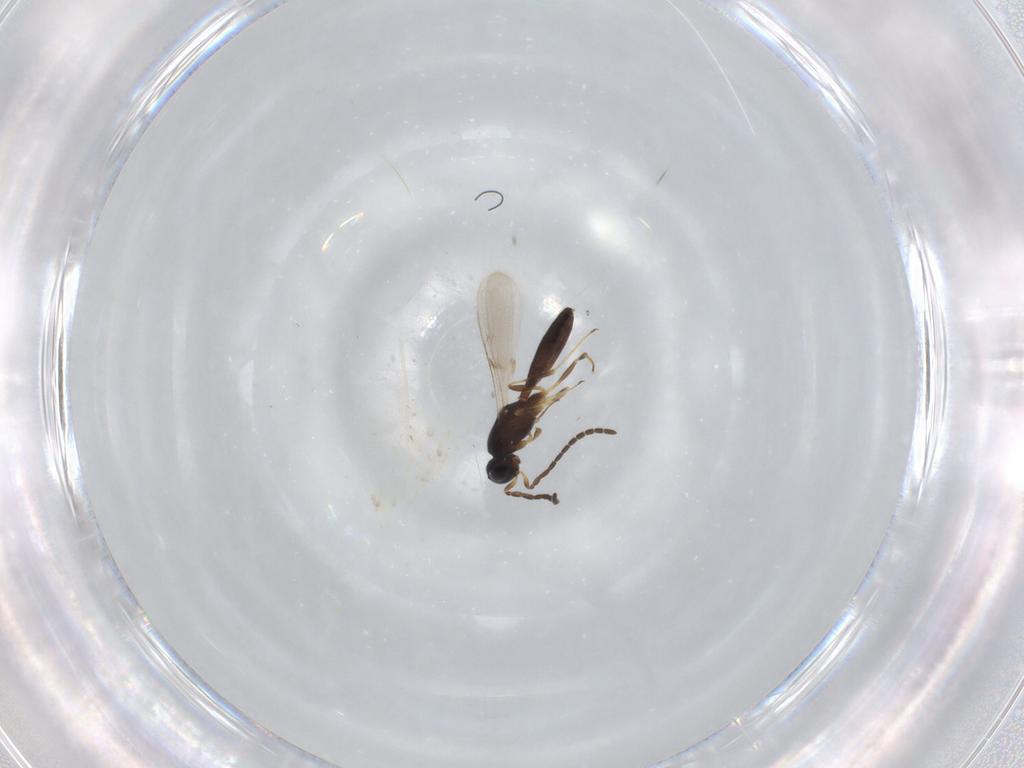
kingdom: Animalia
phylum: Arthropoda
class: Insecta
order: Hymenoptera
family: Scelionidae
